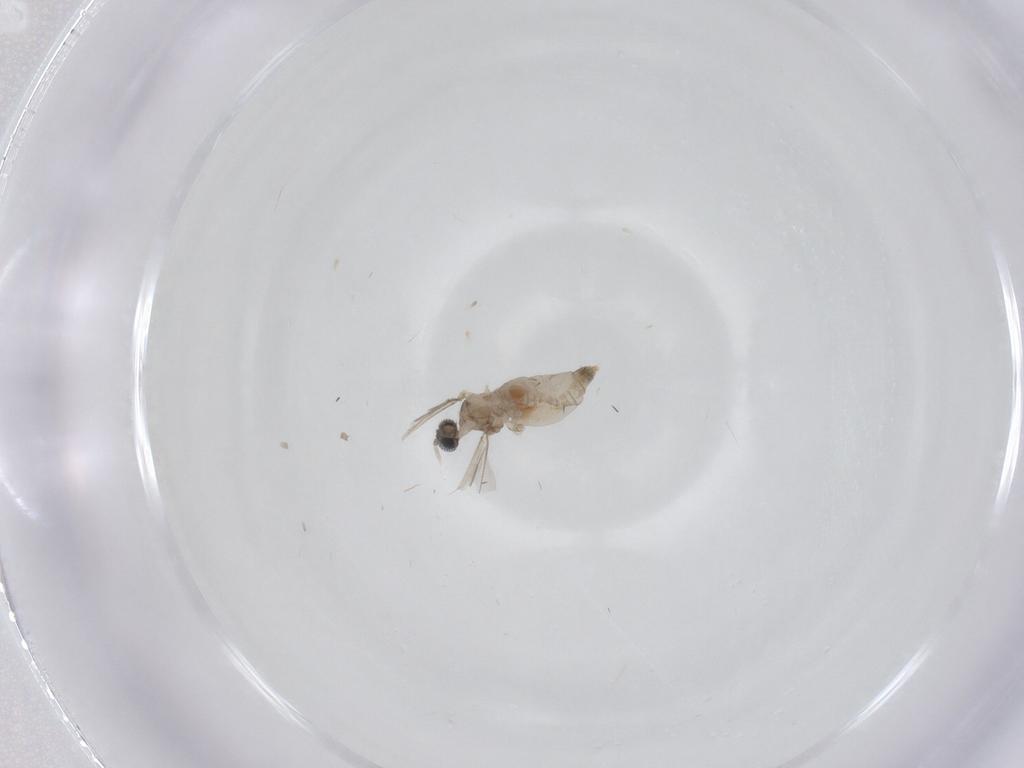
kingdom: Animalia
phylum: Arthropoda
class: Insecta
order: Diptera
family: Cecidomyiidae
